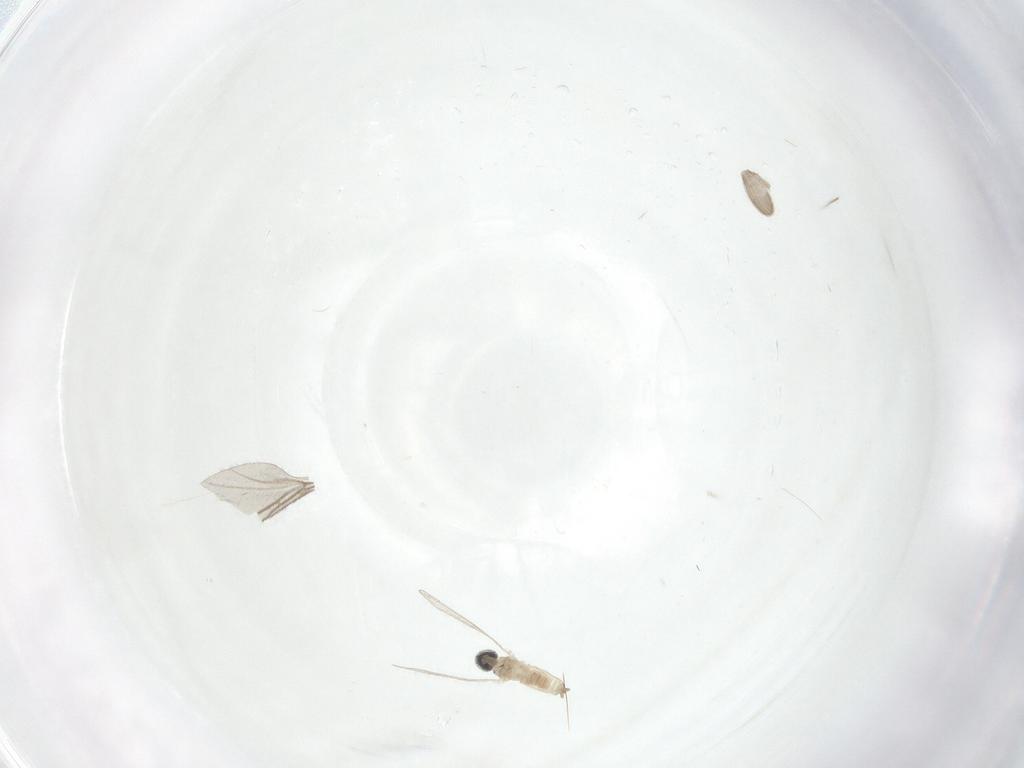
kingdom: Animalia
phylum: Arthropoda
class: Insecta
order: Diptera
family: Mycetophilidae
